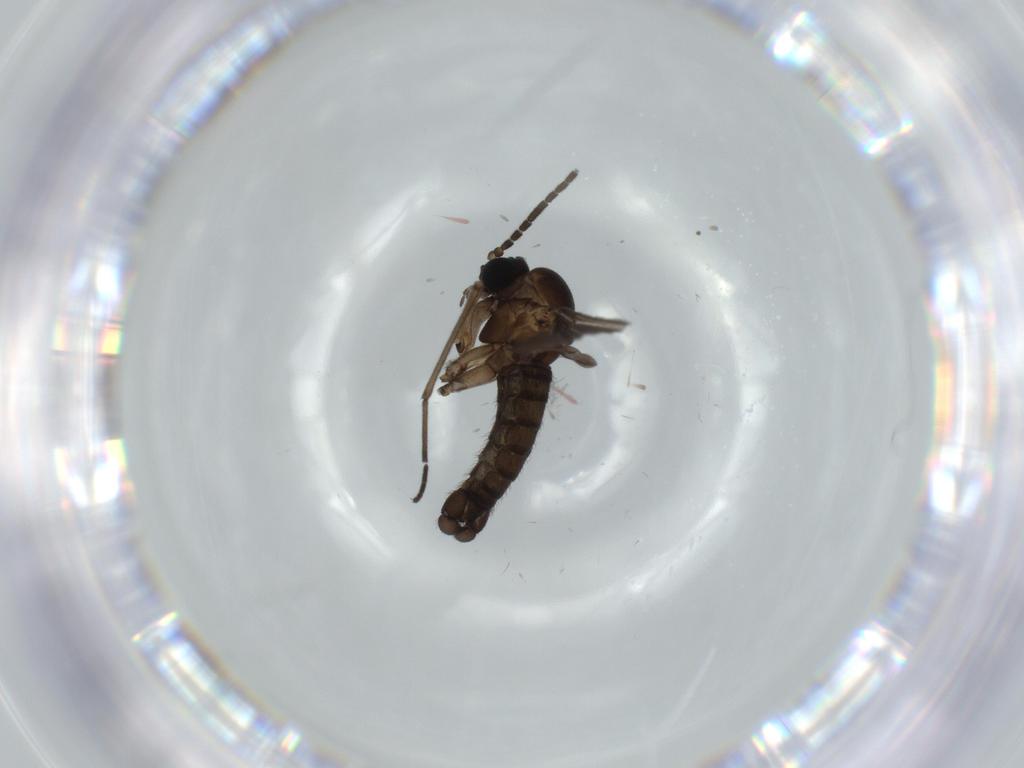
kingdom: Animalia
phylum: Arthropoda
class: Insecta
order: Diptera
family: Sciaridae
